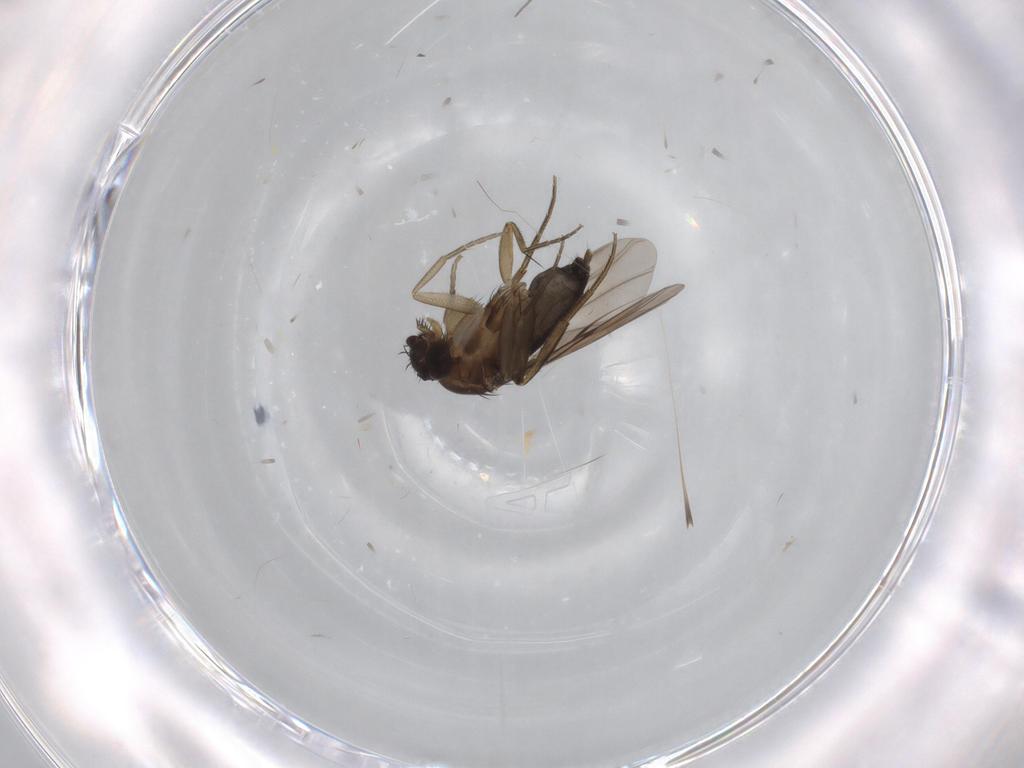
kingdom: Animalia
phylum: Arthropoda
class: Insecta
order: Diptera
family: Phoridae
